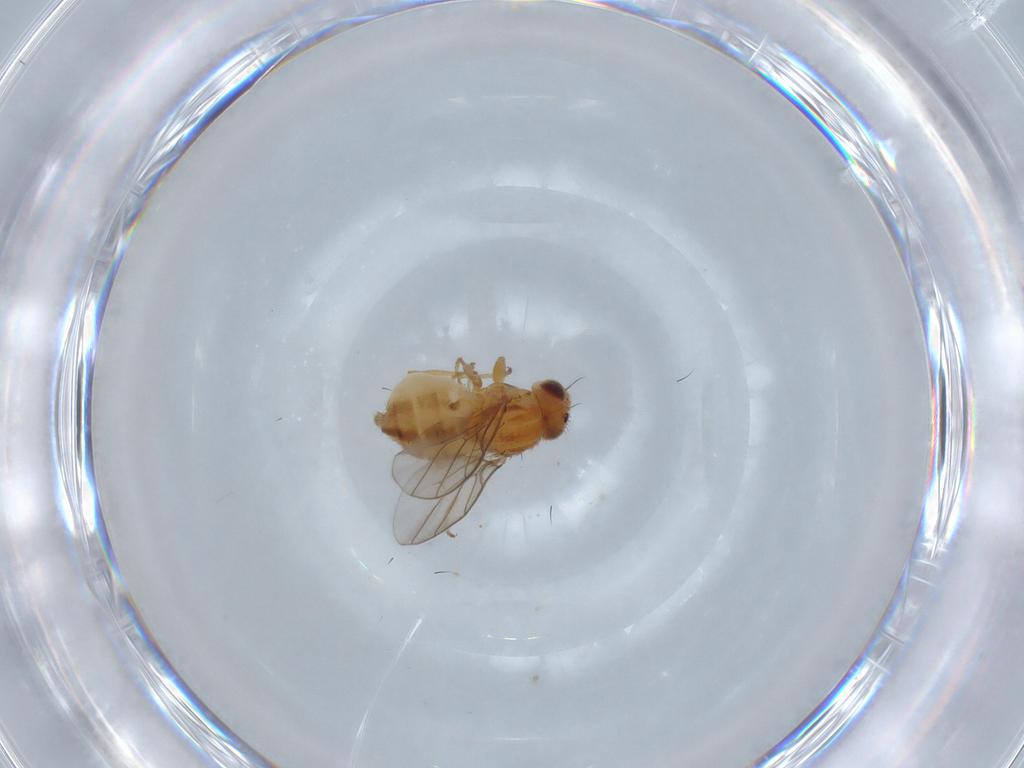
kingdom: Animalia
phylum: Arthropoda
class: Insecta
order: Diptera
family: Chloropidae
